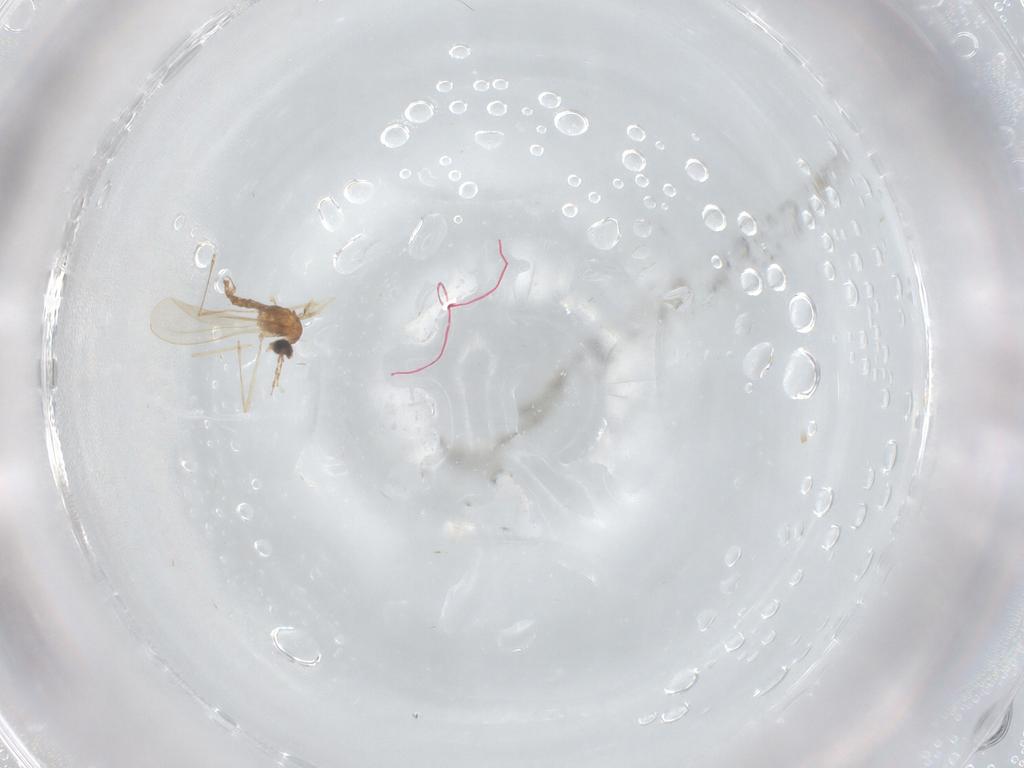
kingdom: Animalia
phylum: Arthropoda
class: Insecta
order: Diptera
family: Cecidomyiidae
